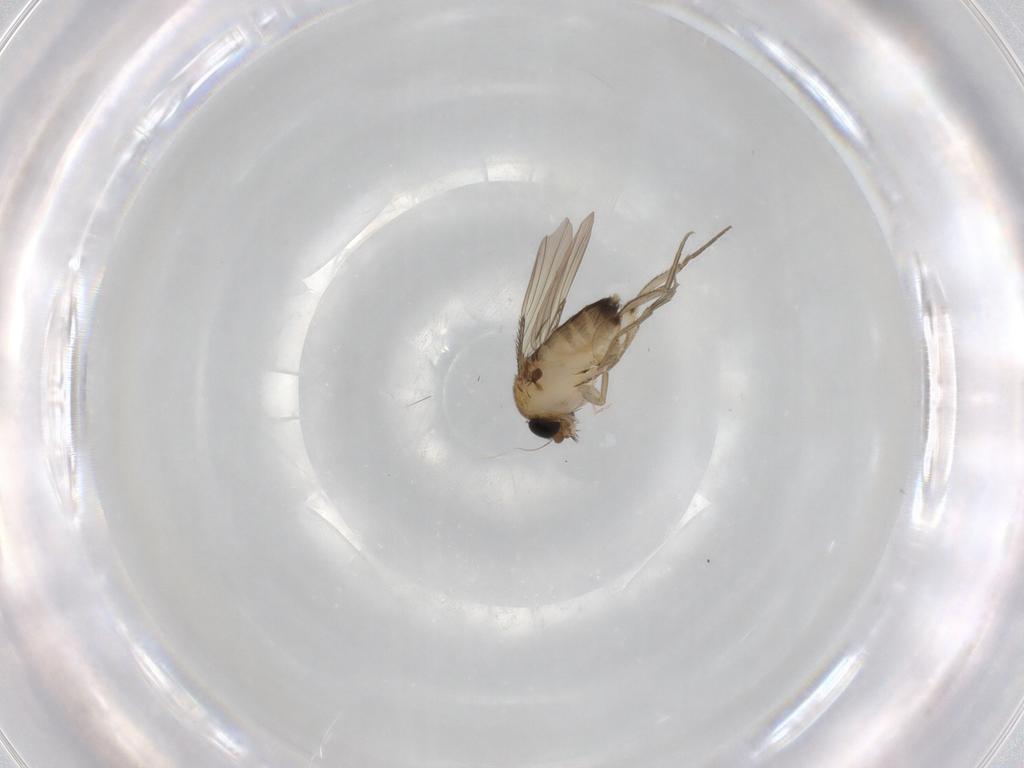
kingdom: Animalia
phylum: Arthropoda
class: Insecta
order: Diptera
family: Phoridae
